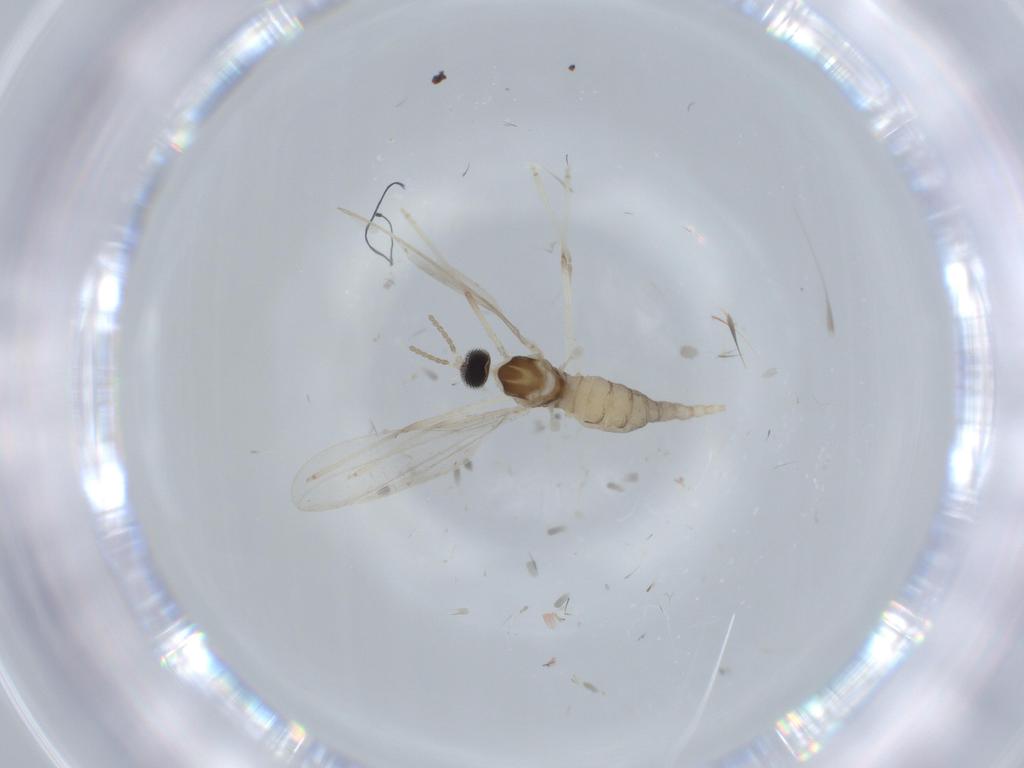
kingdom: Animalia
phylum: Arthropoda
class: Insecta
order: Diptera
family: Cecidomyiidae
